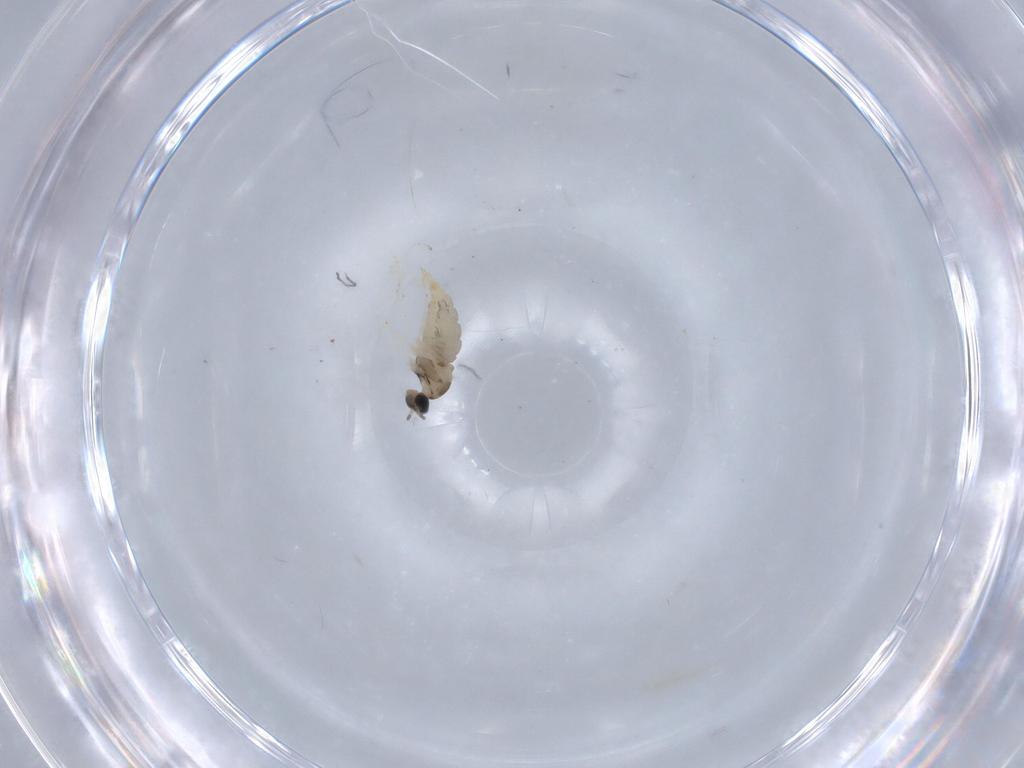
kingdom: Animalia
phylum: Arthropoda
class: Insecta
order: Diptera
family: Cecidomyiidae
